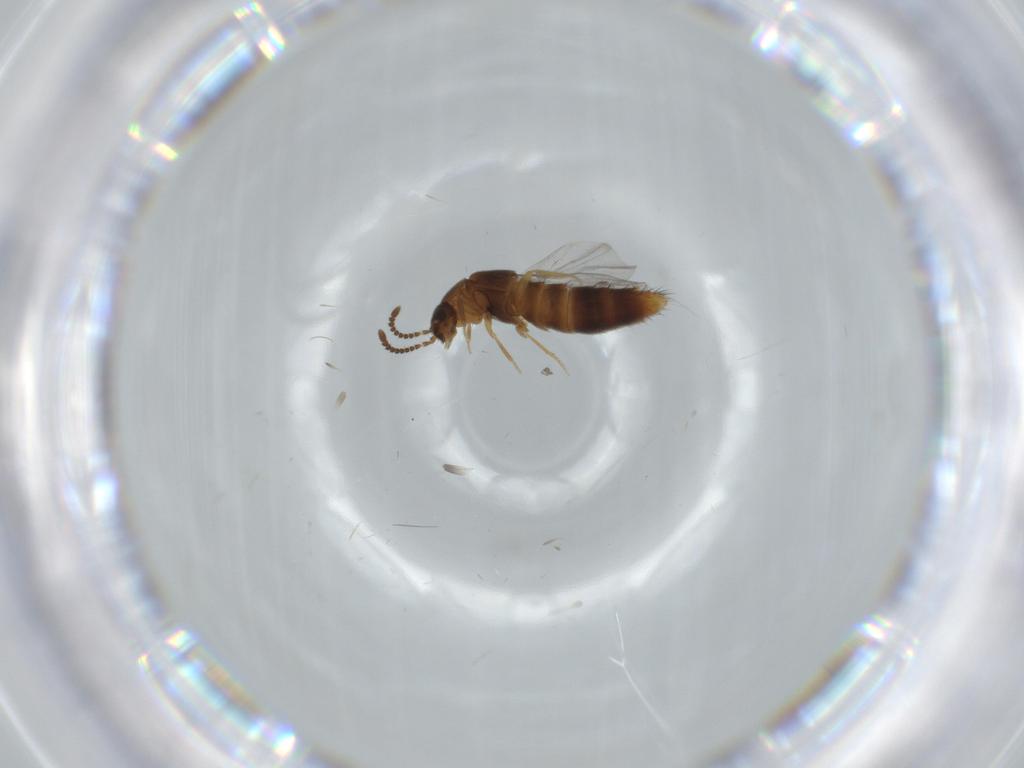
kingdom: Animalia
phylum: Arthropoda
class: Insecta
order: Coleoptera
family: Staphylinidae
